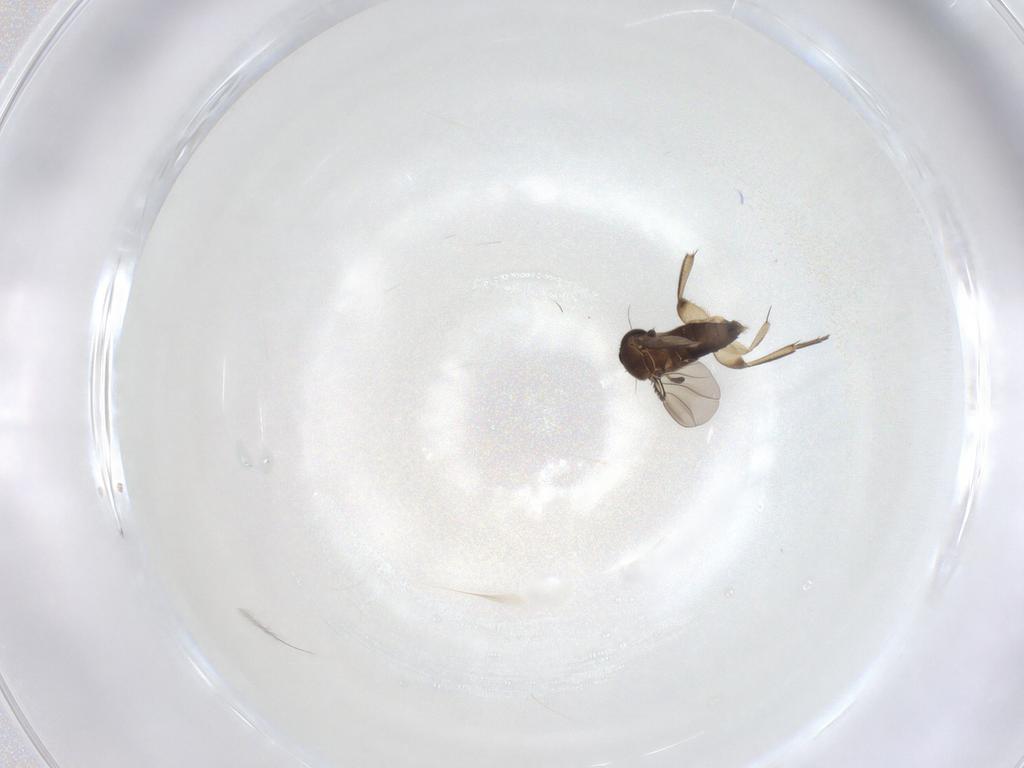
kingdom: Animalia
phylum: Arthropoda
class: Insecta
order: Diptera
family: Phoridae
